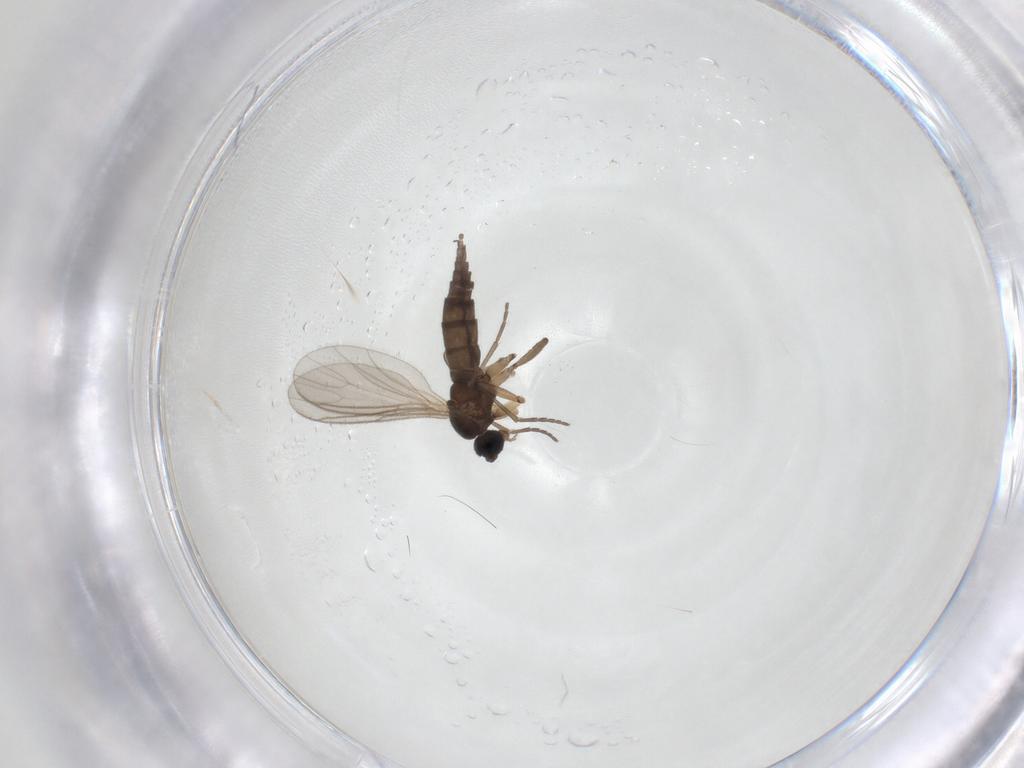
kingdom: Animalia
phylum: Arthropoda
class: Insecta
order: Diptera
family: Sciaridae
